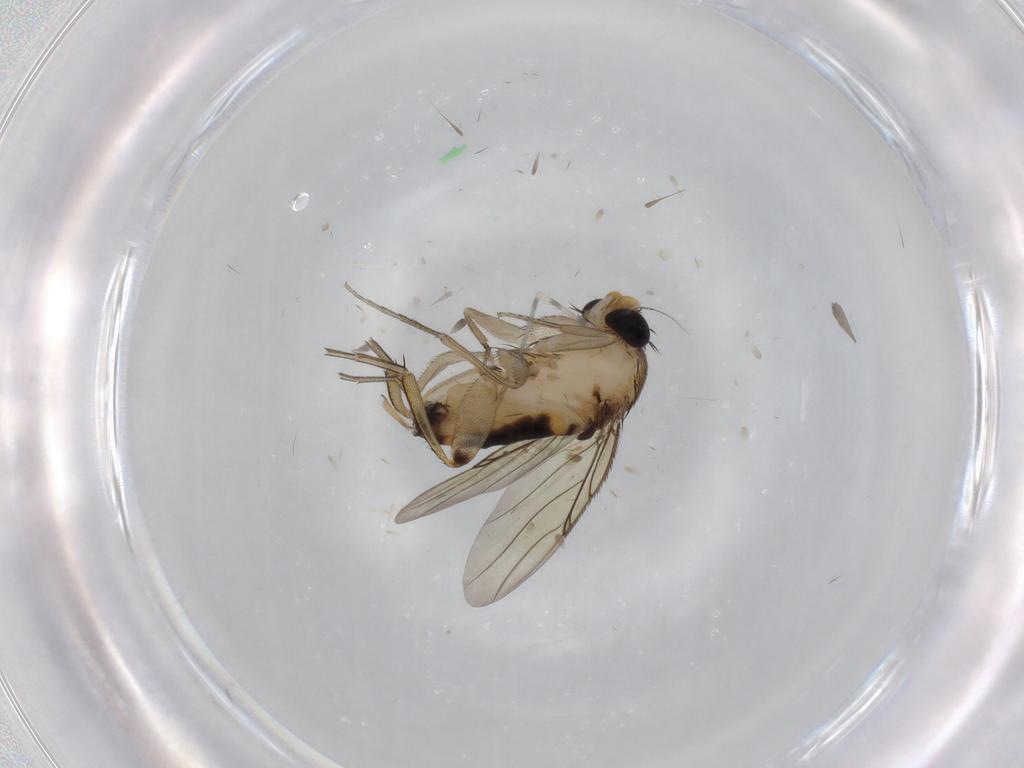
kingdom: Animalia
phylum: Arthropoda
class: Insecta
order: Diptera
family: Phoridae
